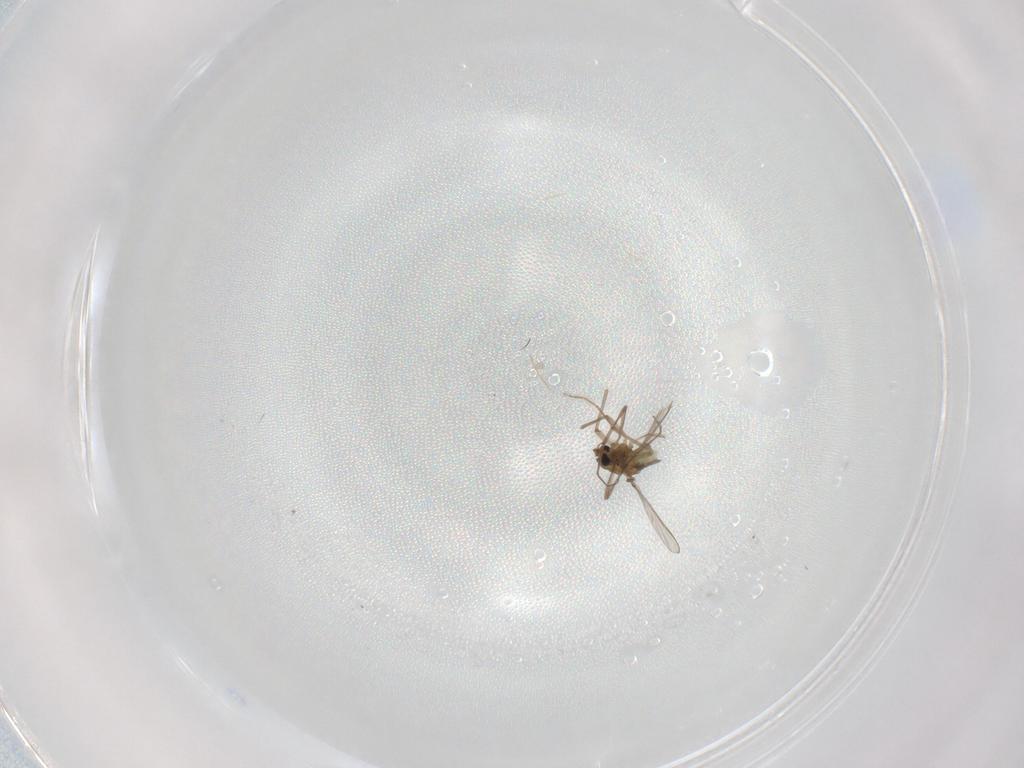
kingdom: Animalia
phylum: Arthropoda
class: Insecta
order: Diptera
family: Chironomidae
